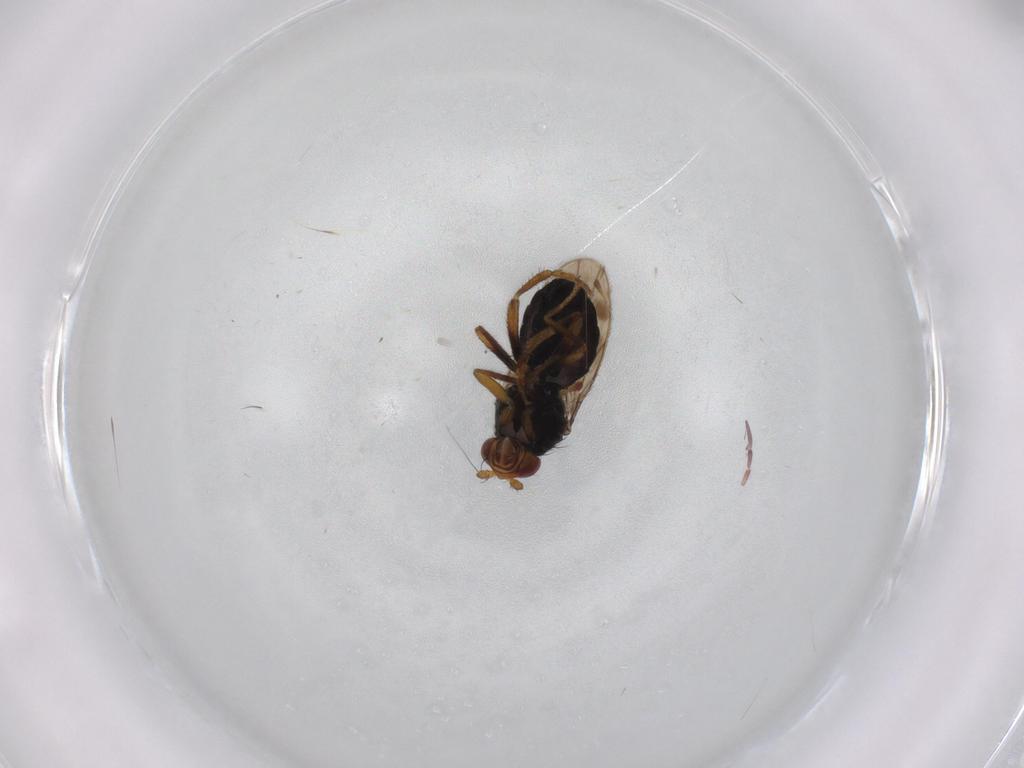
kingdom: Animalia
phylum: Arthropoda
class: Insecta
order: Diptera
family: Sphaeroceridae
